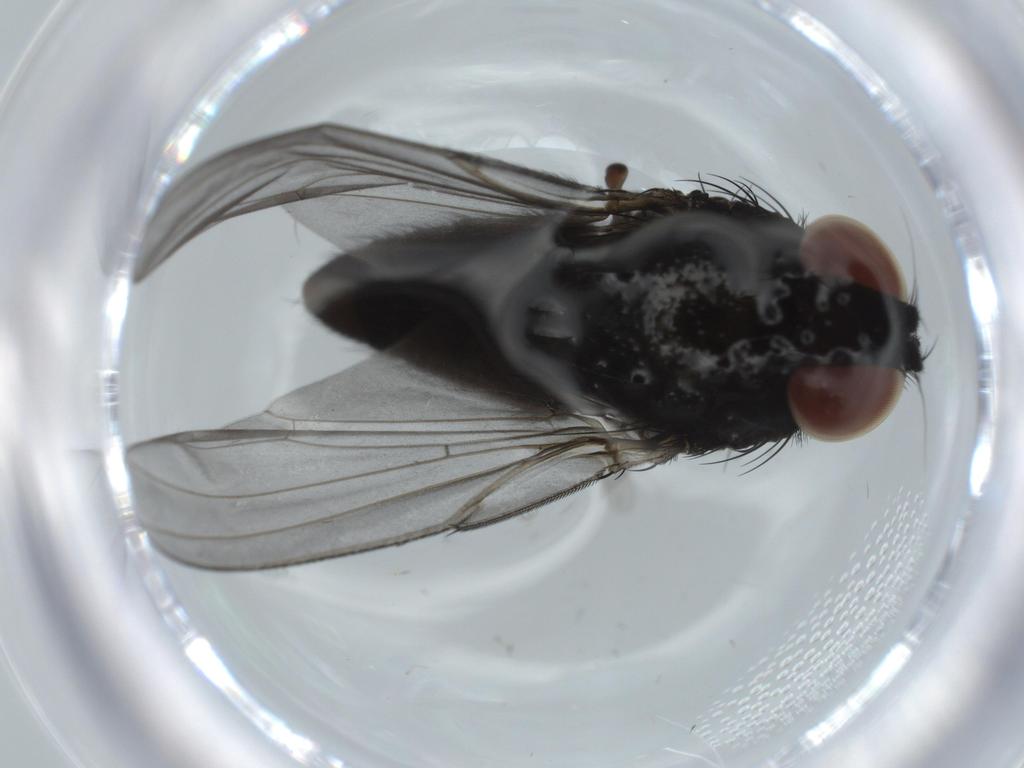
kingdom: Animalia
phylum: Arthropoda
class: Insecta
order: Diptera
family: Milichiidae
